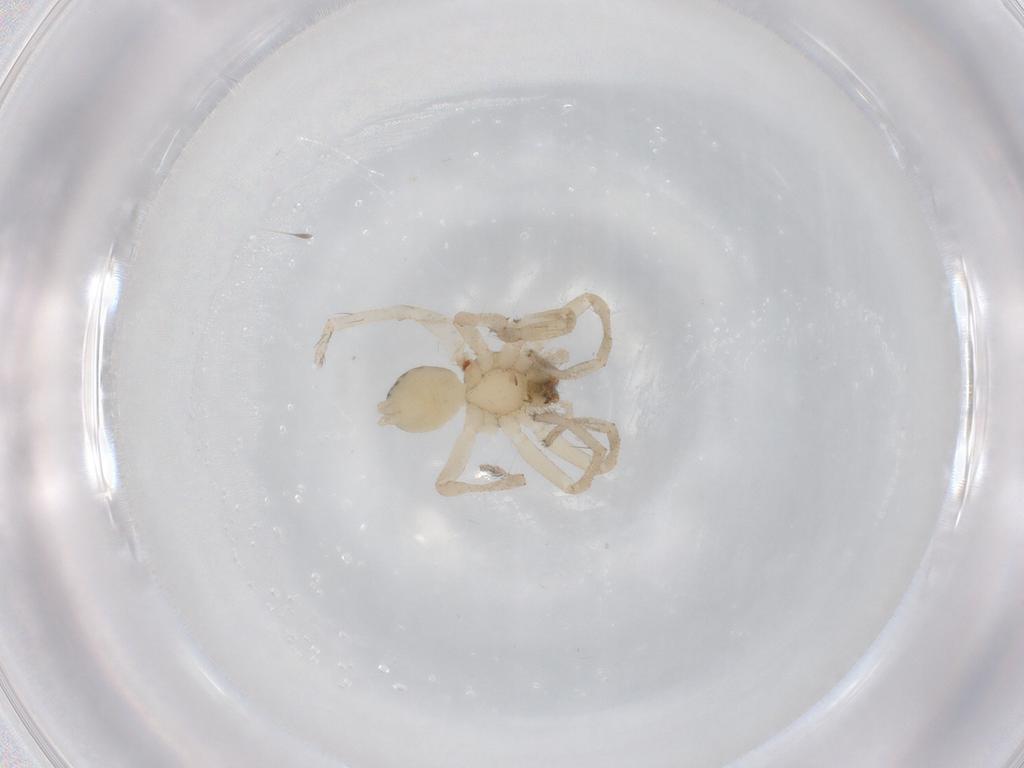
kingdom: Animalia
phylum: Arthropoda
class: Arachnida
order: Araneae
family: Anyphaenidae
